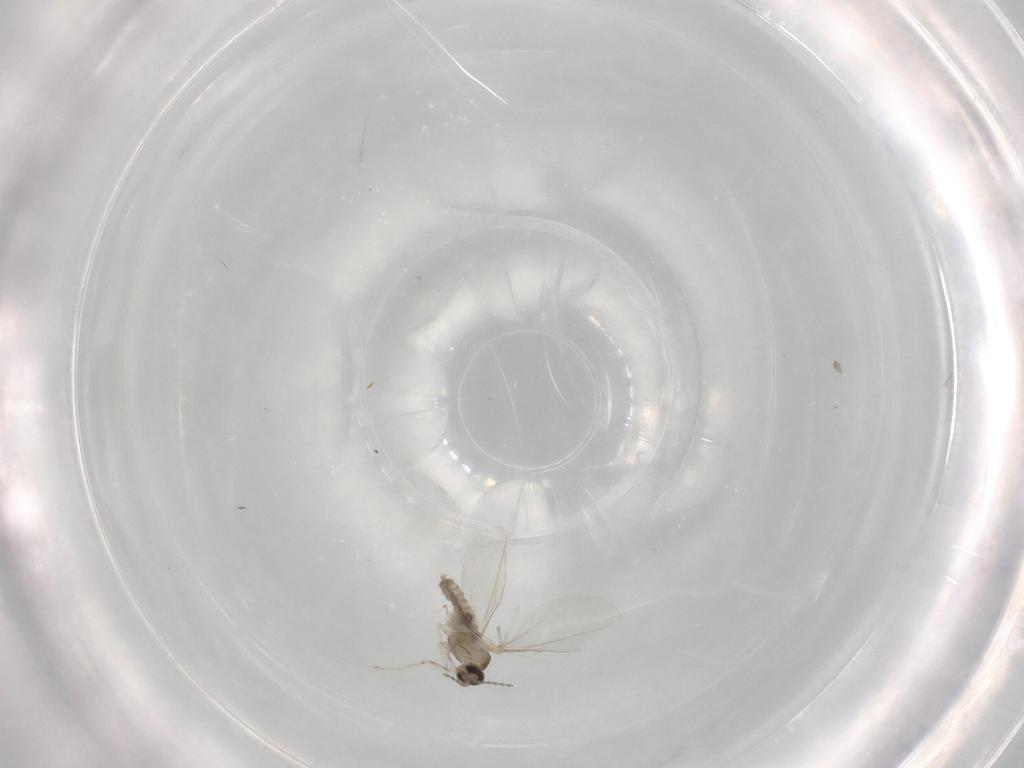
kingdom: Animalia
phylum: Arthropoda
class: Insecta
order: Diptera
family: Cecidomyiidae
